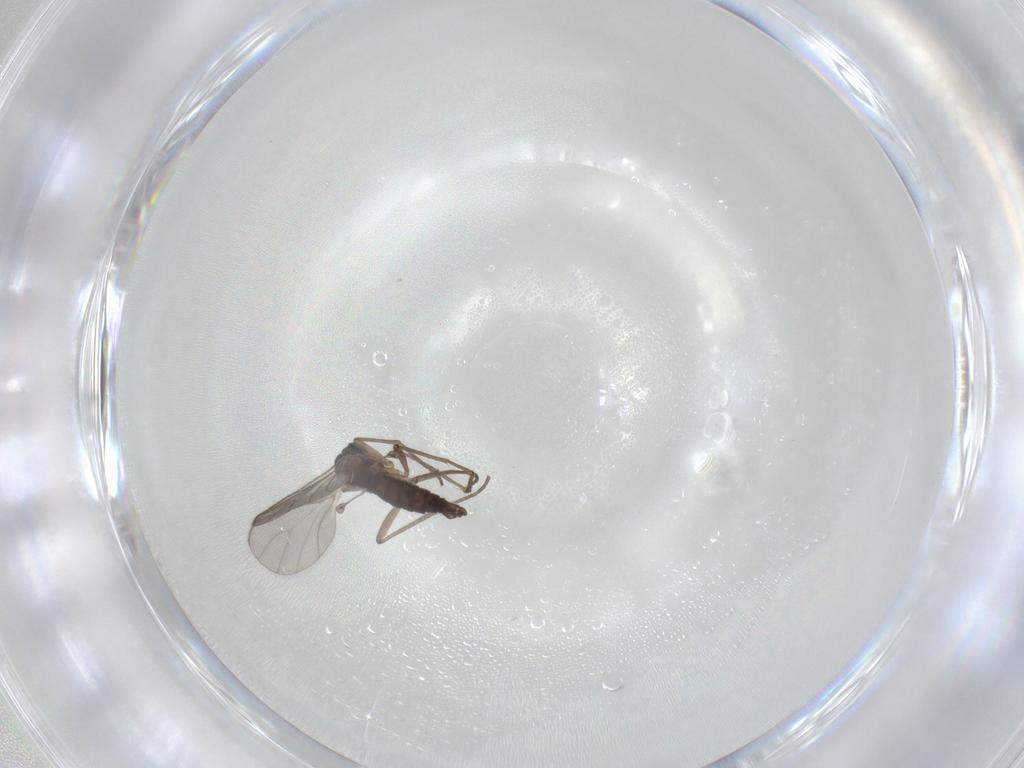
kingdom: Animalia
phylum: Arthropoda
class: Insecta
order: Diptera
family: Sciaridae
